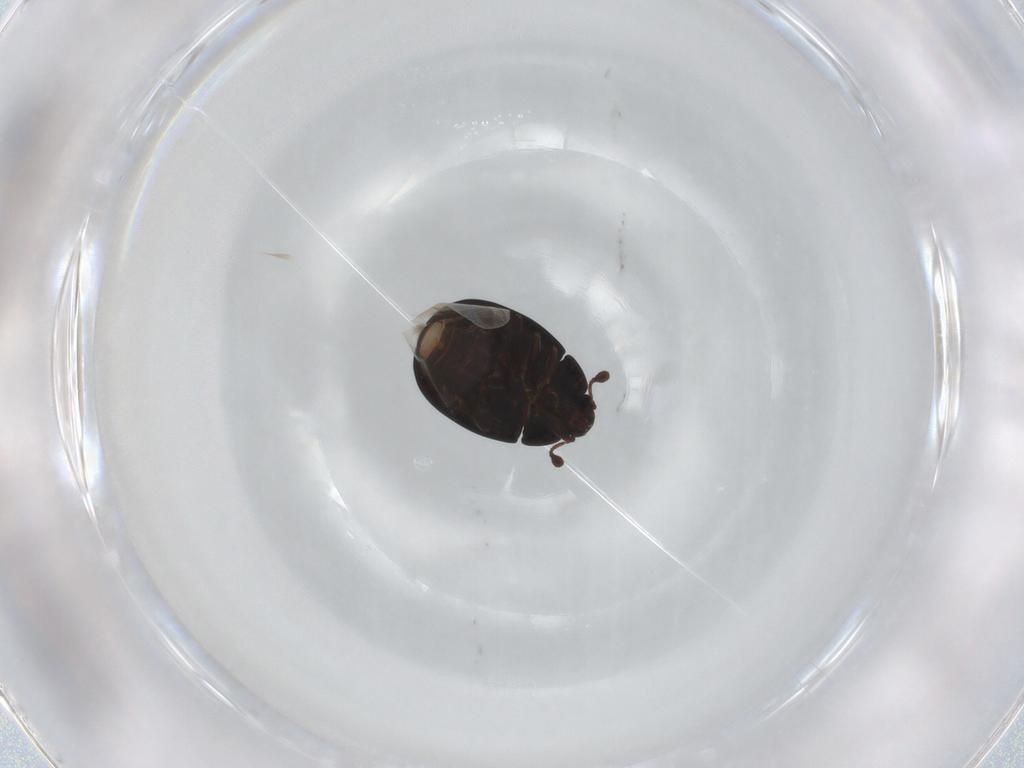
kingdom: Animalia
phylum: Arthropoda
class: Insecta
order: Coleoptera
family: Discolomatidae
